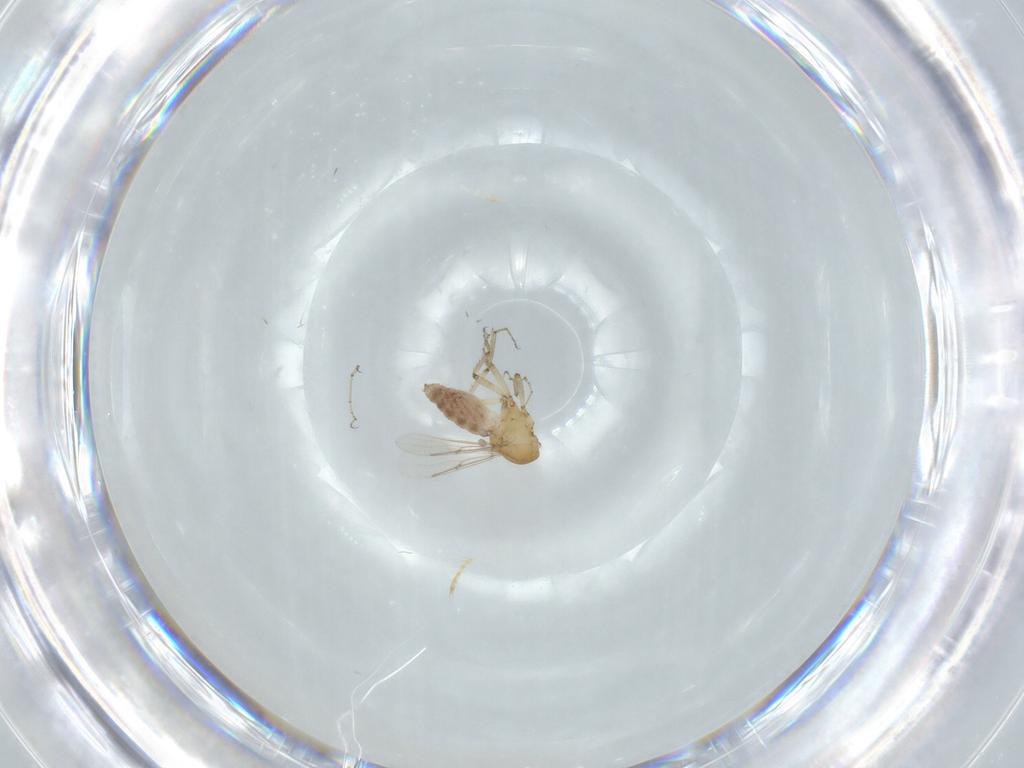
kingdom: Animalia
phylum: Arthropoda
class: Insecta
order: Diptera
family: Ceratopogonidae
